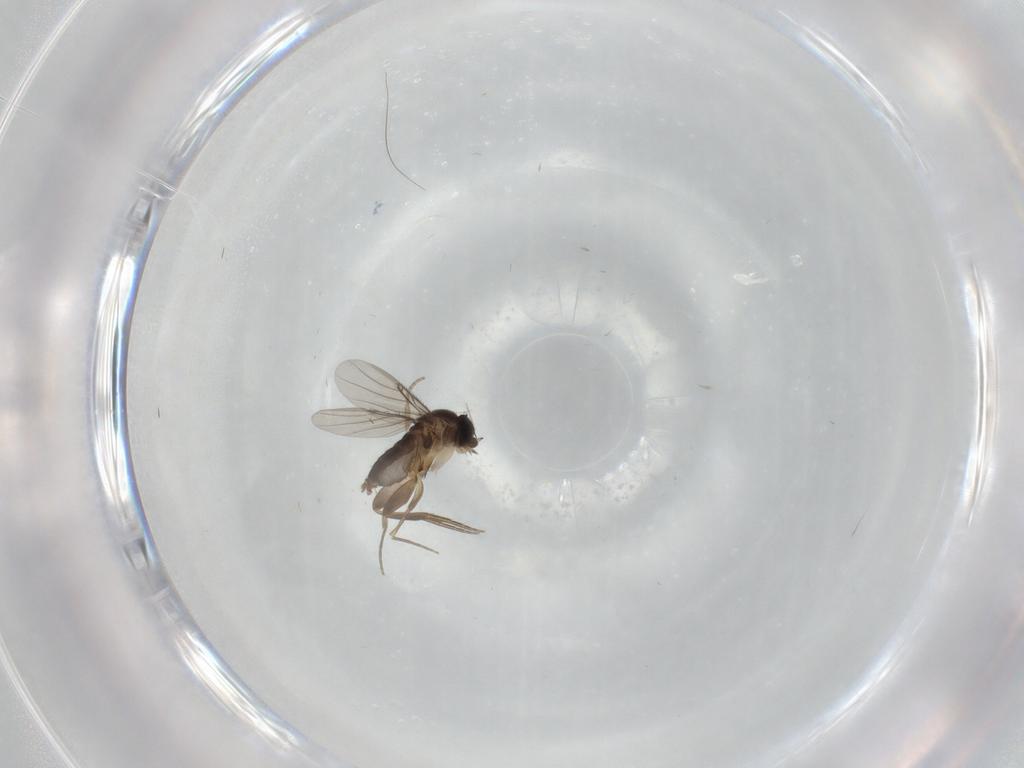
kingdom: Animalia
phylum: Arthropoda
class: Insecta
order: Diptera
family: Phoridae
